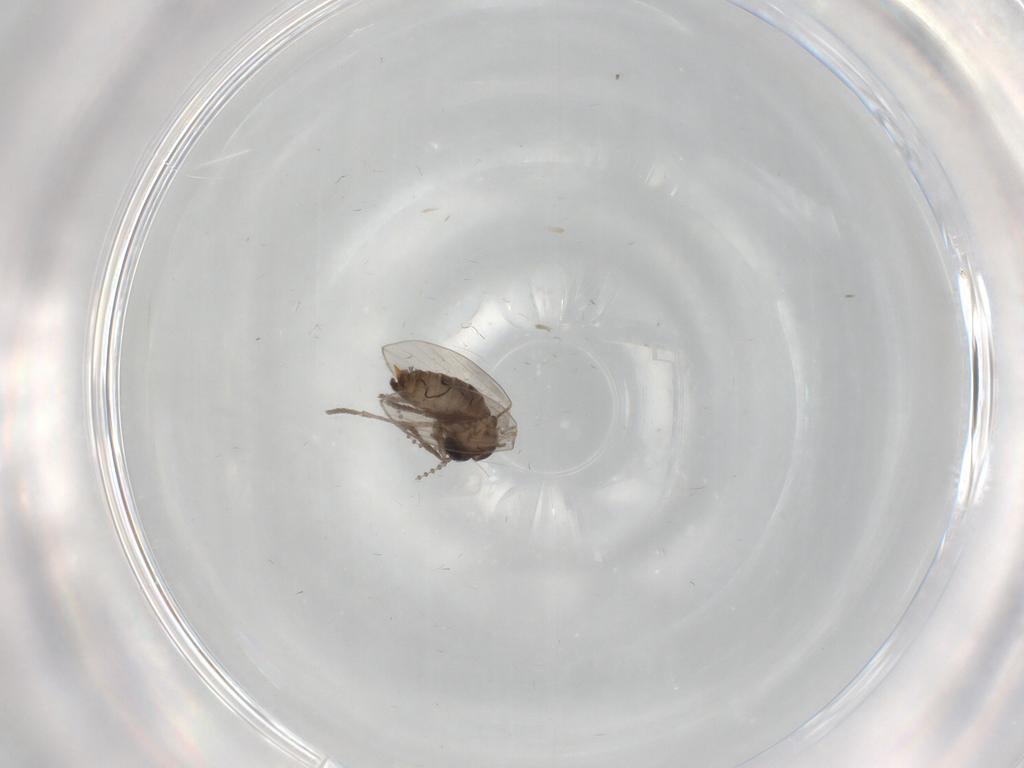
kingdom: Animalia
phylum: Arthropoda
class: Insecta
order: Diptera
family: Psychodidae
